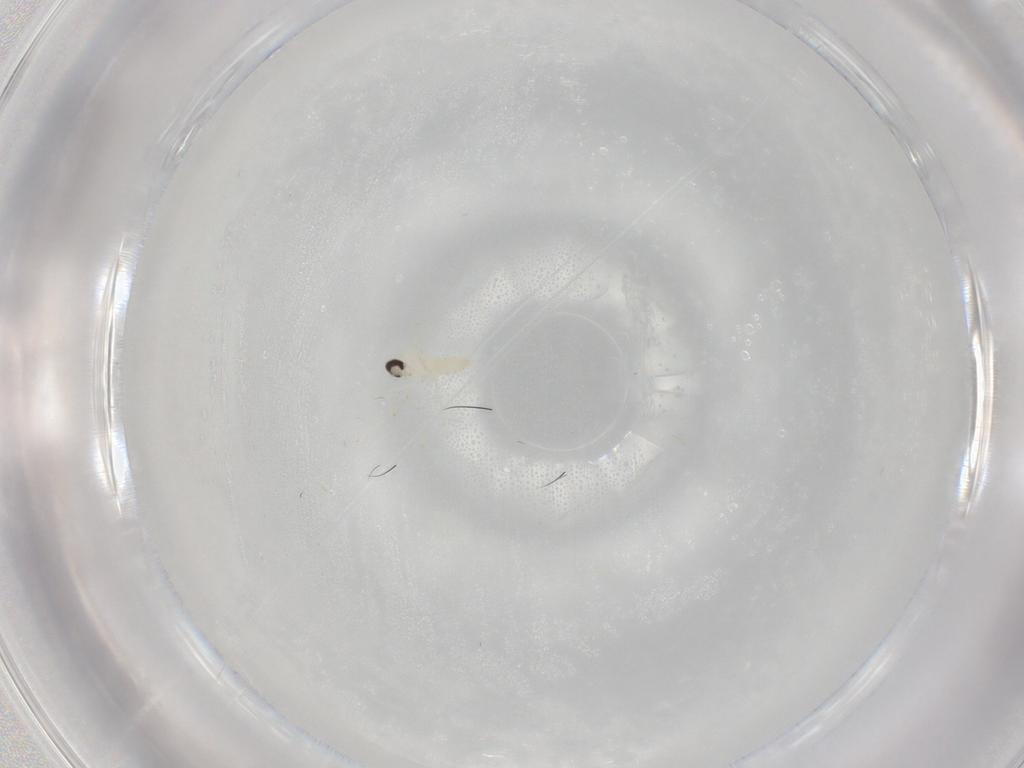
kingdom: Animalia
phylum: Arthropoda
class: Insecta
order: Diptera
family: Cecidomyiidae
